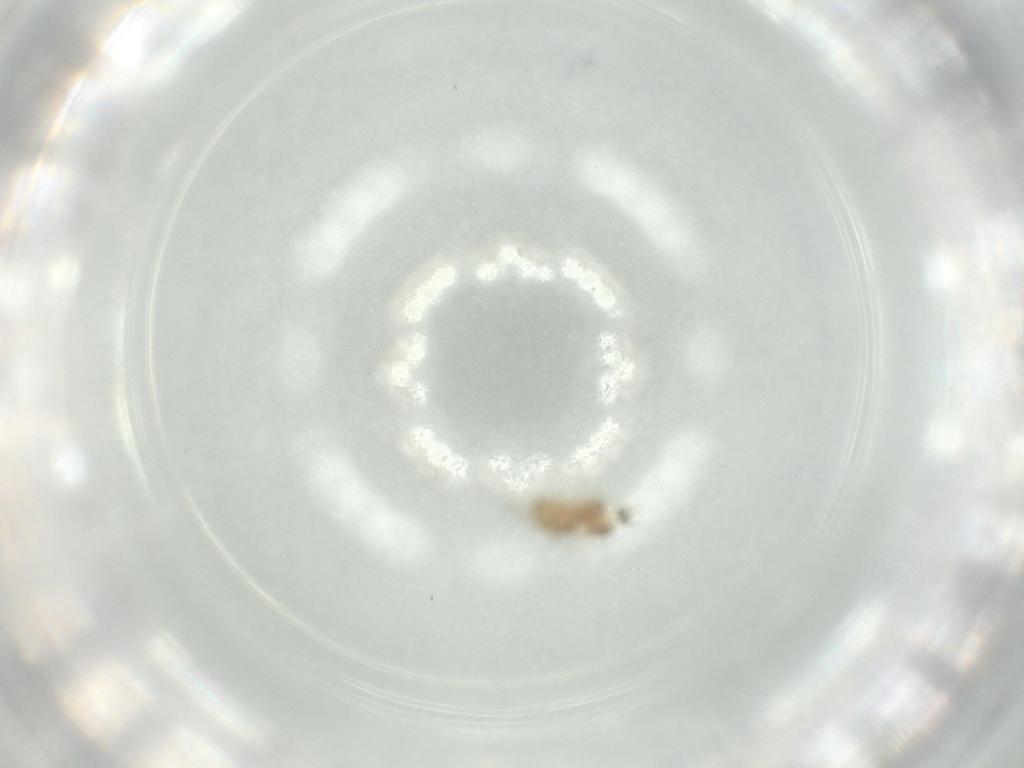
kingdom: Animalia
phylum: Arthropoda
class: Insecta
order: Diptera
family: Cecidomyiidae
